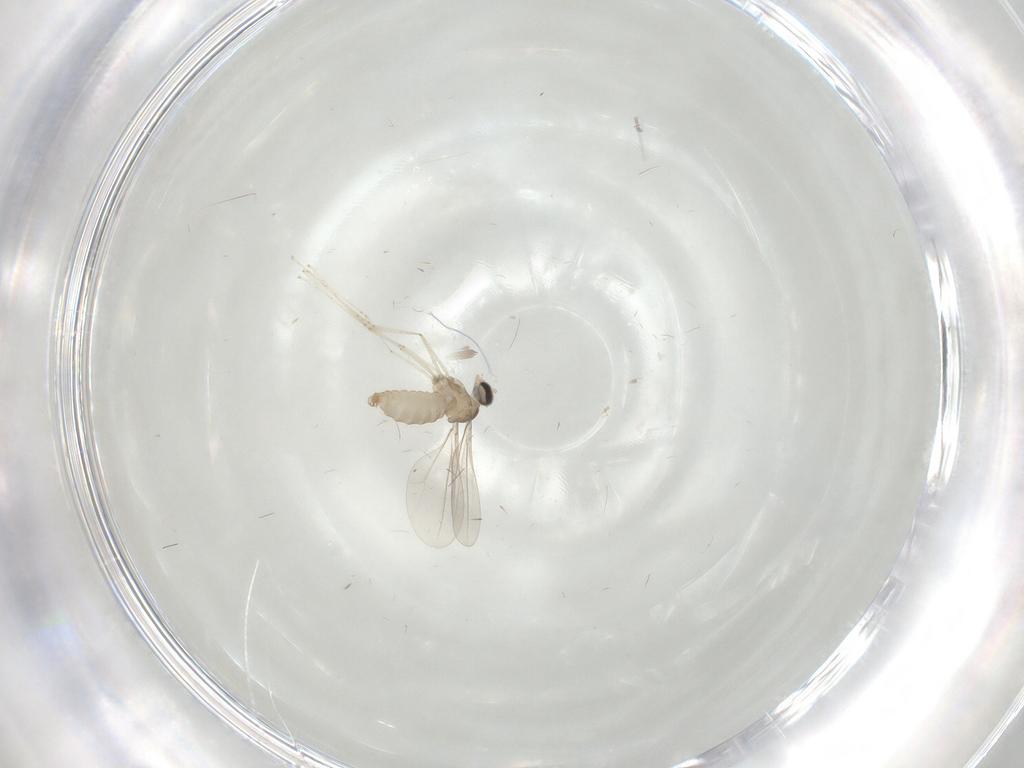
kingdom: Animalia
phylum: Arthropoda
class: Insecta
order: Diptera
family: Cecidomyiidae
